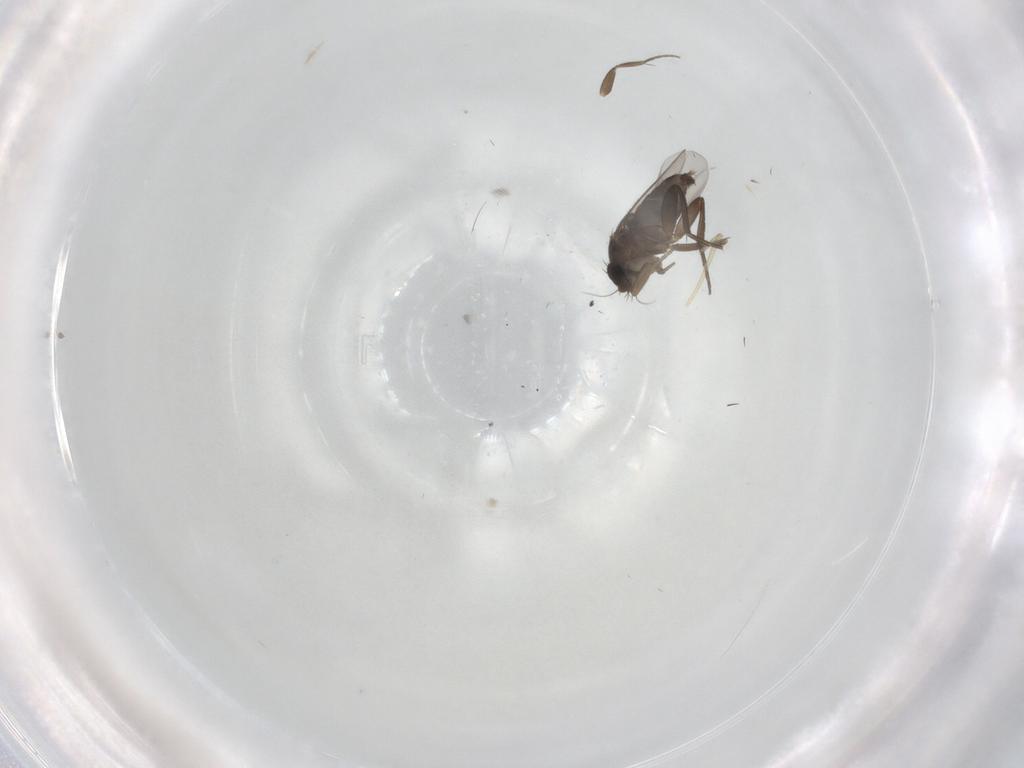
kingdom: Animalia
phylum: Arthropoda
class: Insecta
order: Diptera
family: Phoridae
